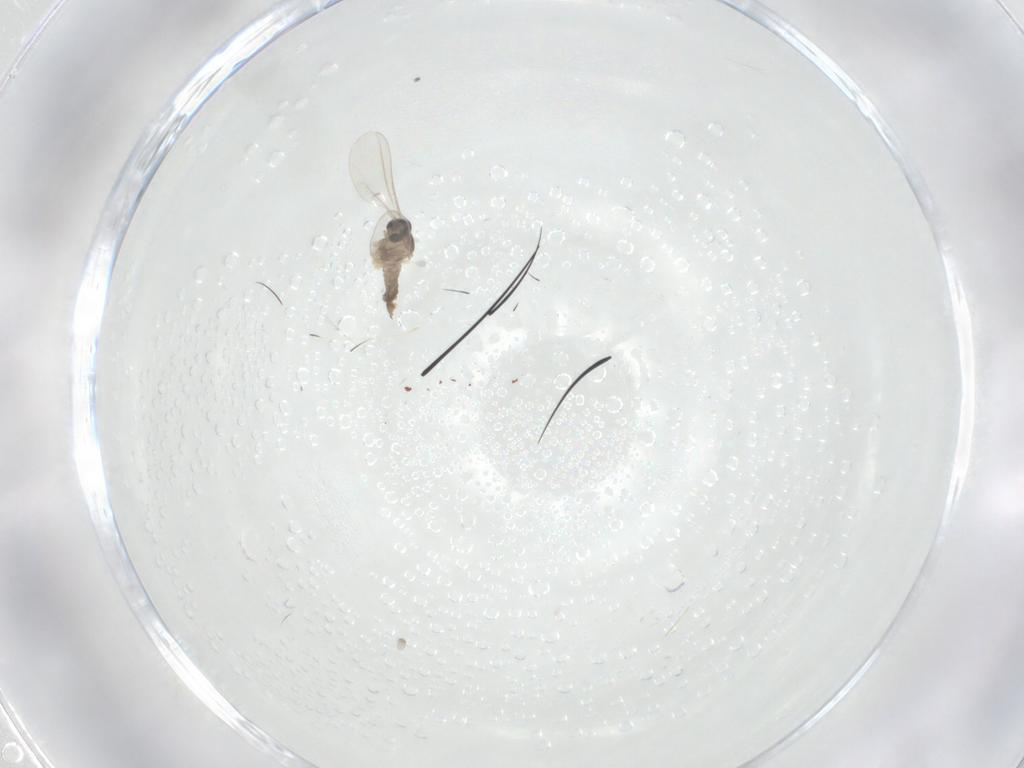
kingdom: Animalia
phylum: Arthropoda
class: Insecta
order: Diptera
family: Cecidomyiidae
